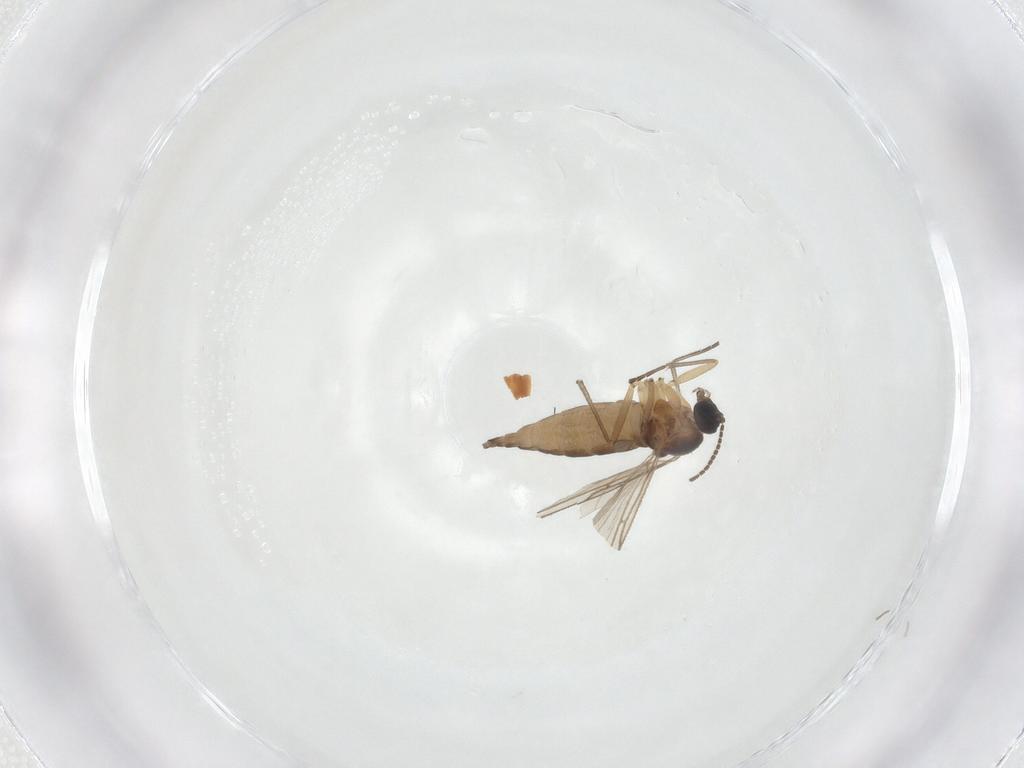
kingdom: Animalia
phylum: Arthropoda
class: Insecta
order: Diptera
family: Sciaridae
